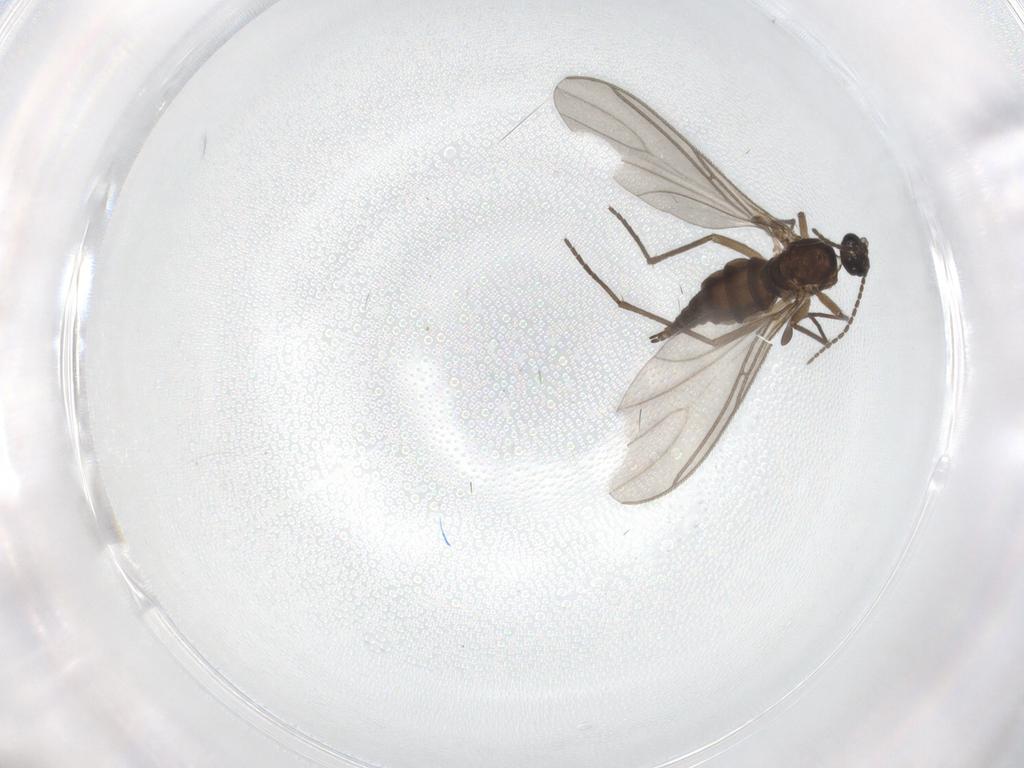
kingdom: Animalia
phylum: Arthropoda
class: Insecta
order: Diptera
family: Sciaridae
